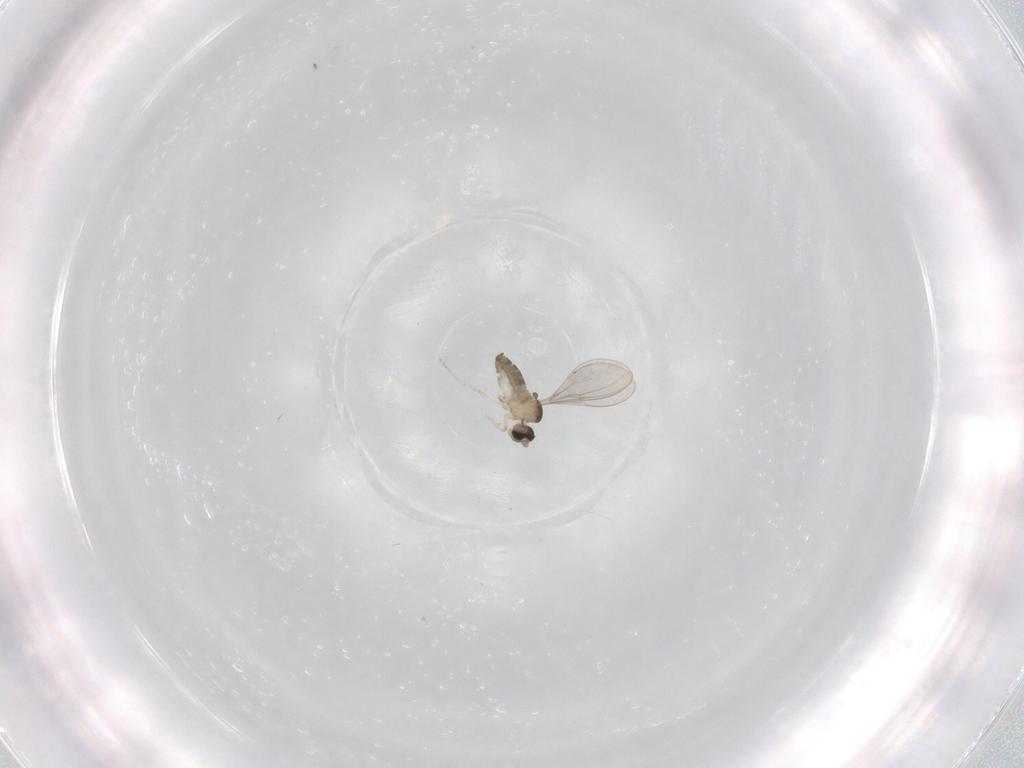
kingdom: Animalia
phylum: Arthropoda
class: Insecta
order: Diptera
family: Cecidomyiidae
